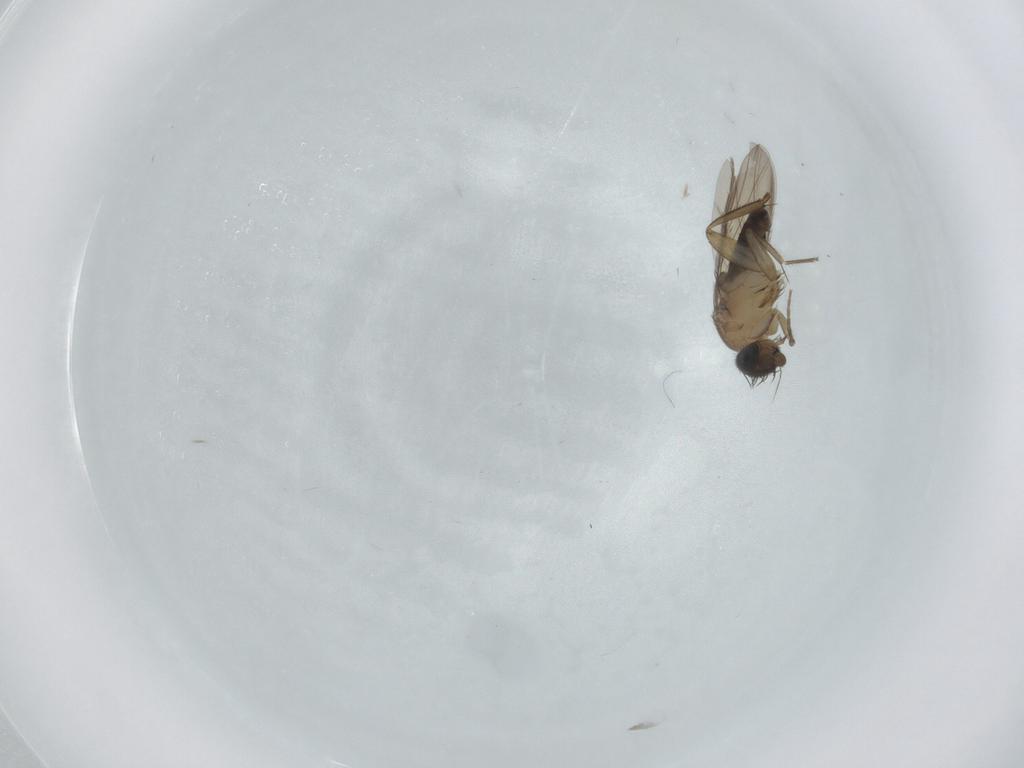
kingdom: Animalia
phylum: Arthropoda
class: Insecta
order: Diptera
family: Phoridae
